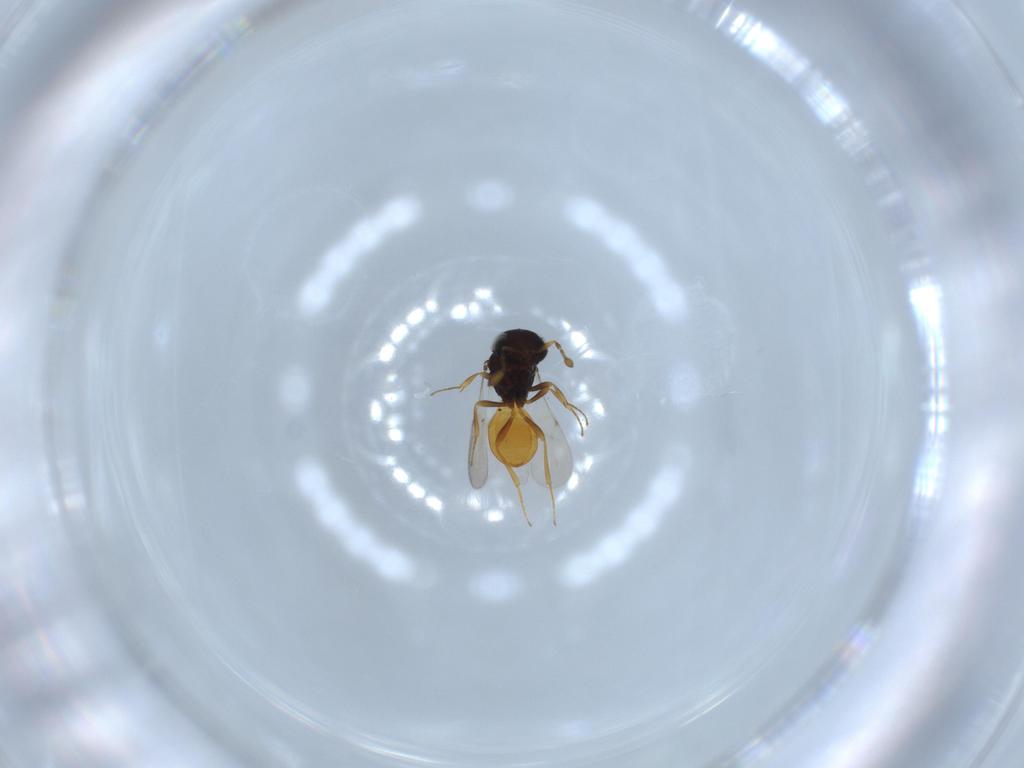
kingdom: Animalia
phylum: Arthropoda
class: Insecta
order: Hymenoptera
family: Scelionidae
